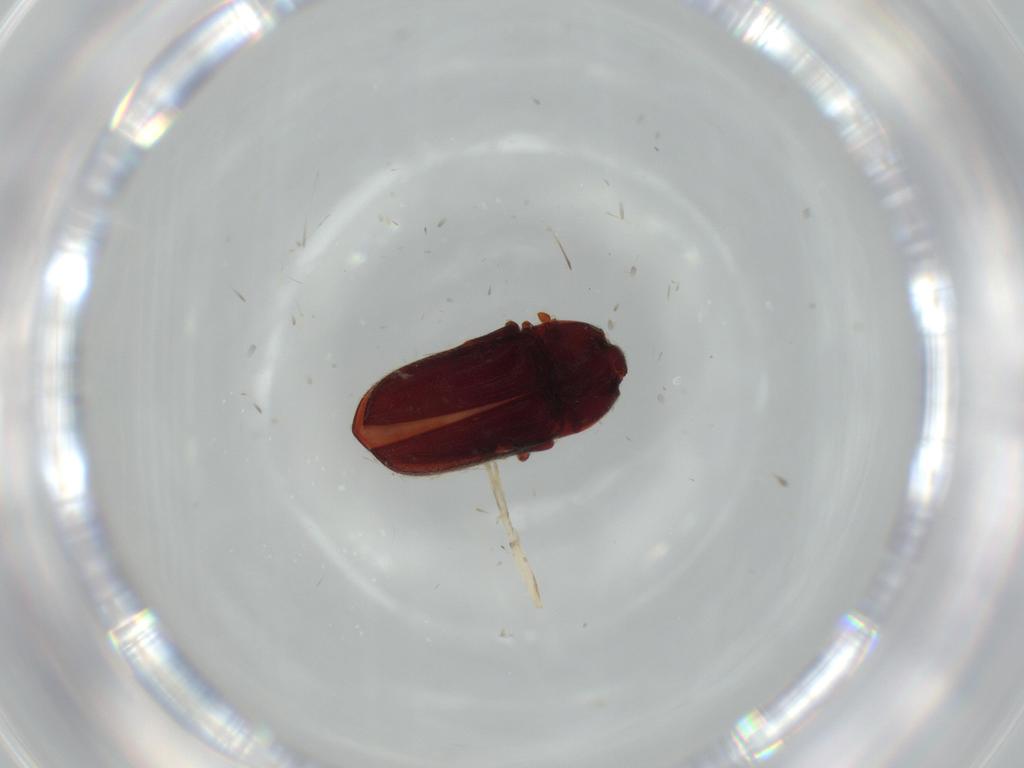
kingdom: Animalia
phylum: Arthropoda
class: Insecta
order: Coleoptera
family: Throscidae
